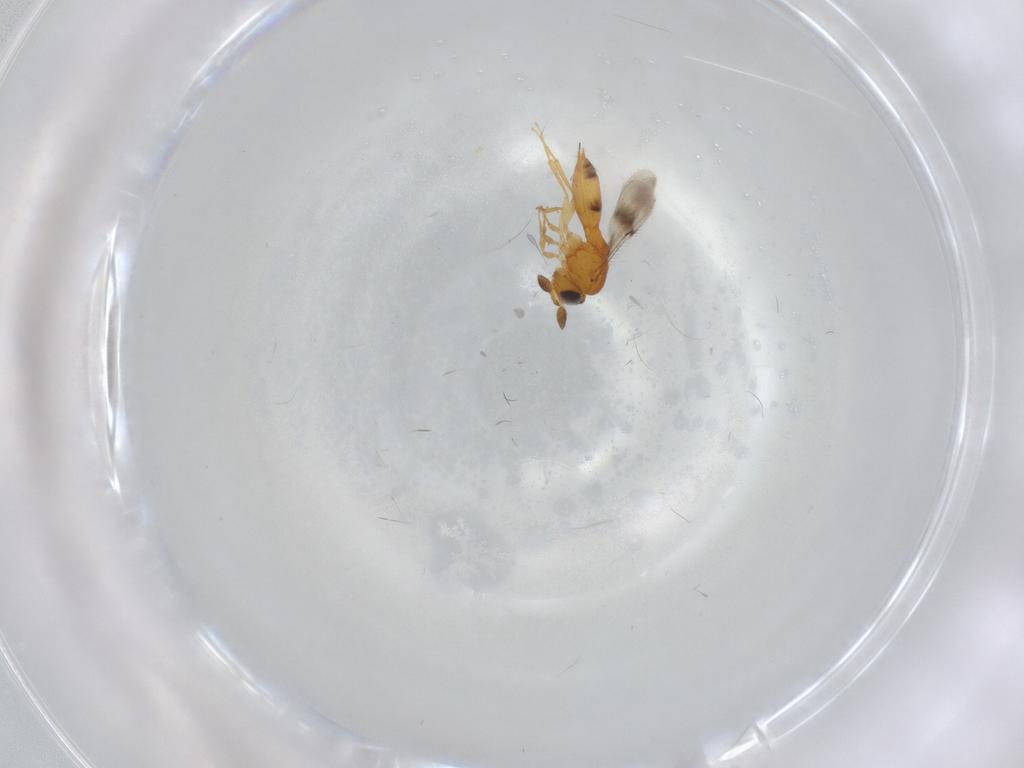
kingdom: Animalia
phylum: Arthropoda
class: Insecta
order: Hymenoptera
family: Scelionidae
